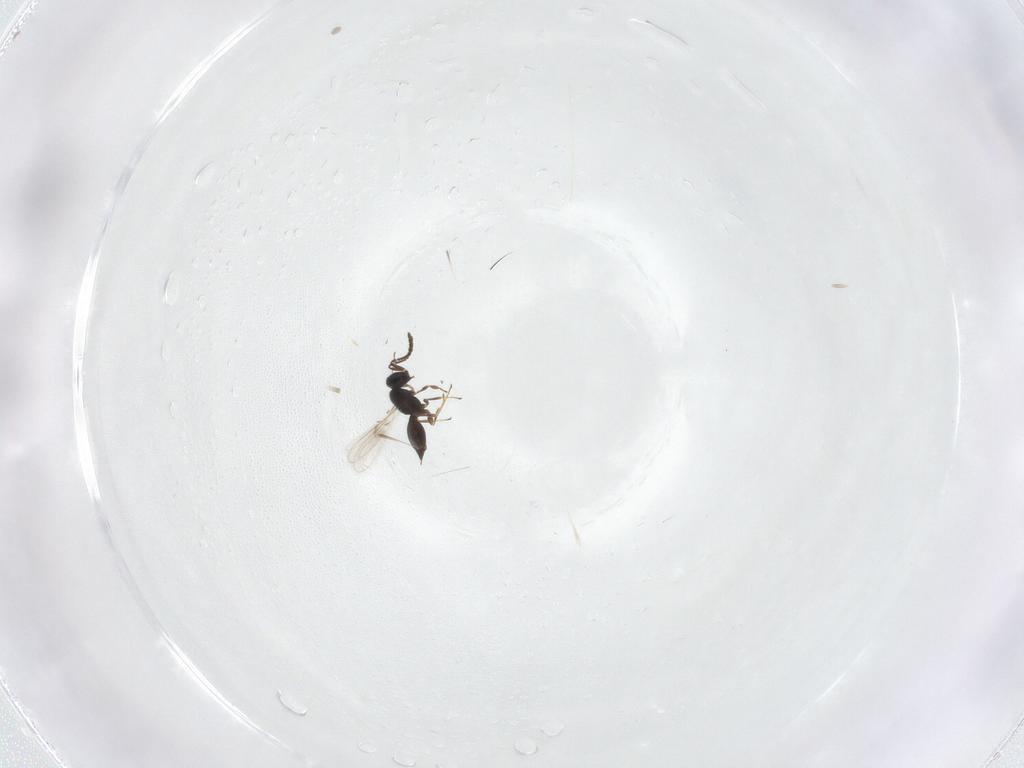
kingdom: Animalia
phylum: Arthropoda
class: Insecta
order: Hymenoptera
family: Scelionidae
